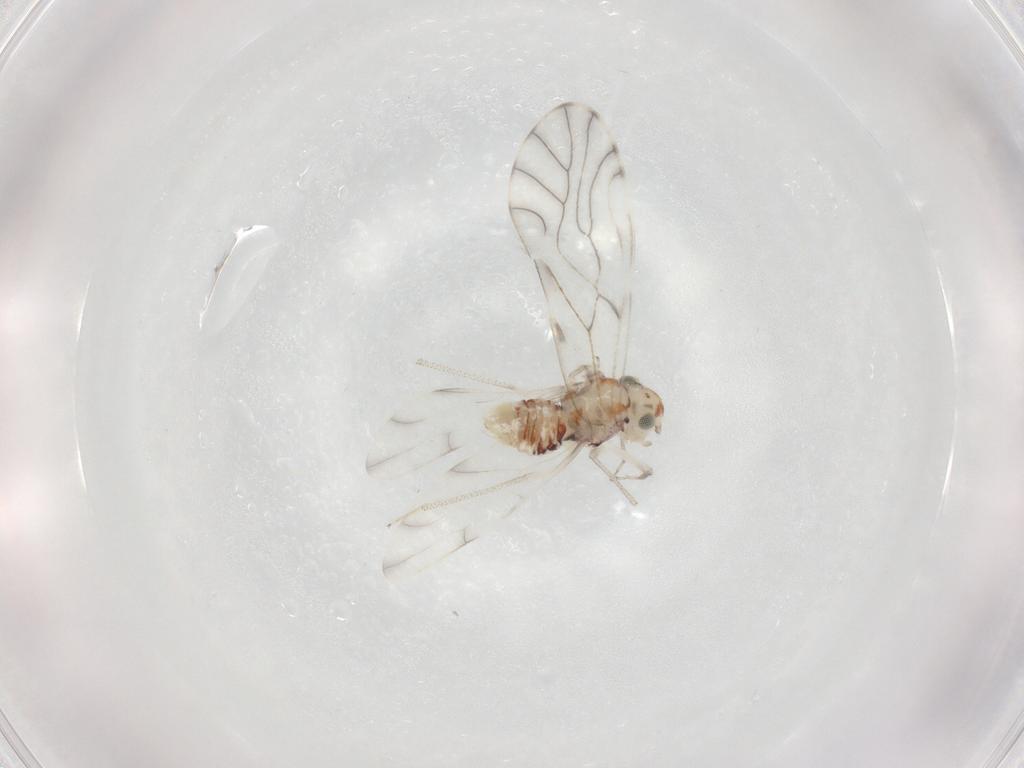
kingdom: Animalia
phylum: Arthropoda
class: Insecta
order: Psocodea
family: Philotarsidae
